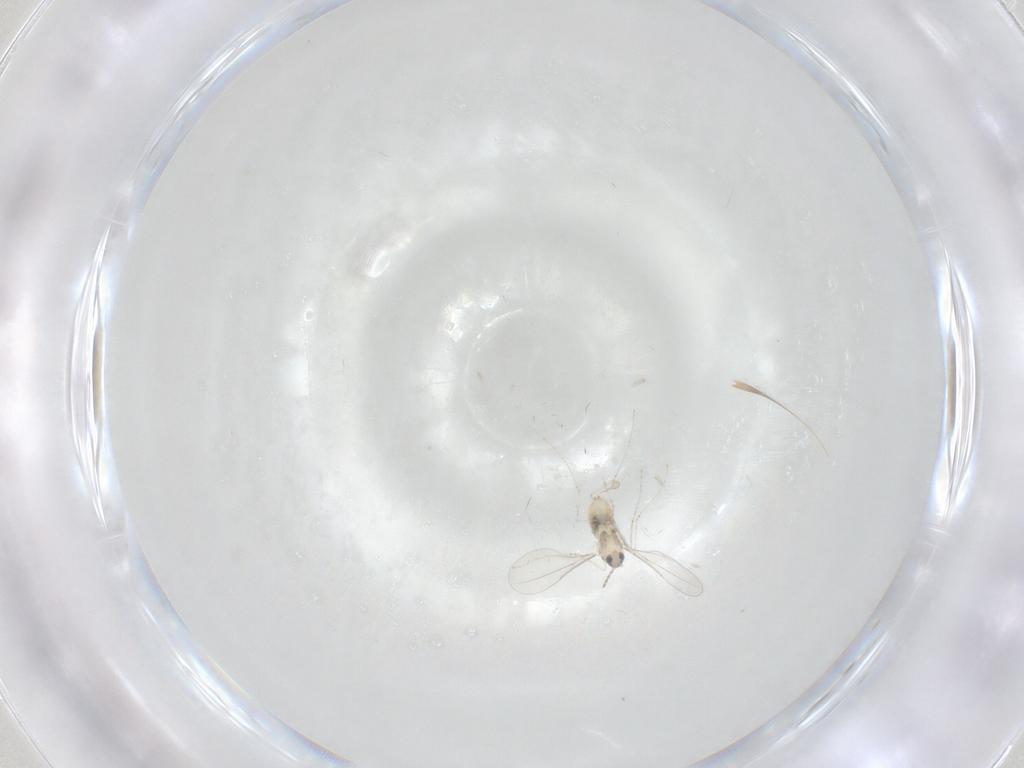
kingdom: Animalia
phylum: Arthropoda
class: Insecta
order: Diptera
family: Cecidomyiidae
